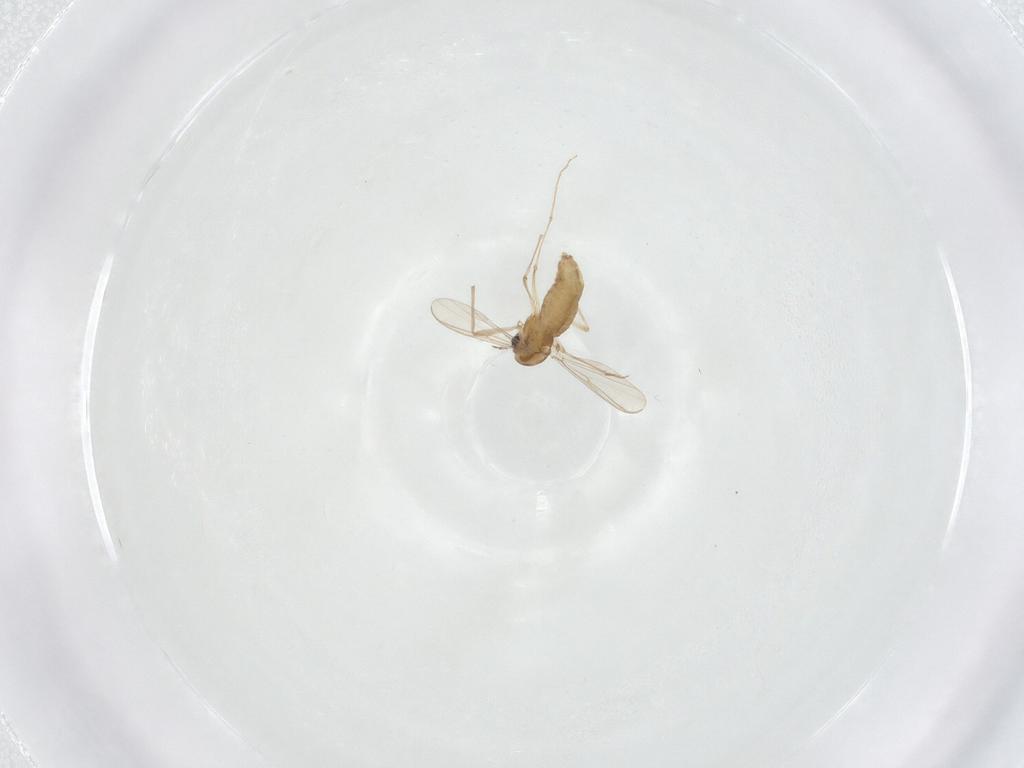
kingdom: Animalia
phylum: Arthropoda
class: Insecta
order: Diptera
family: Chironomidae
